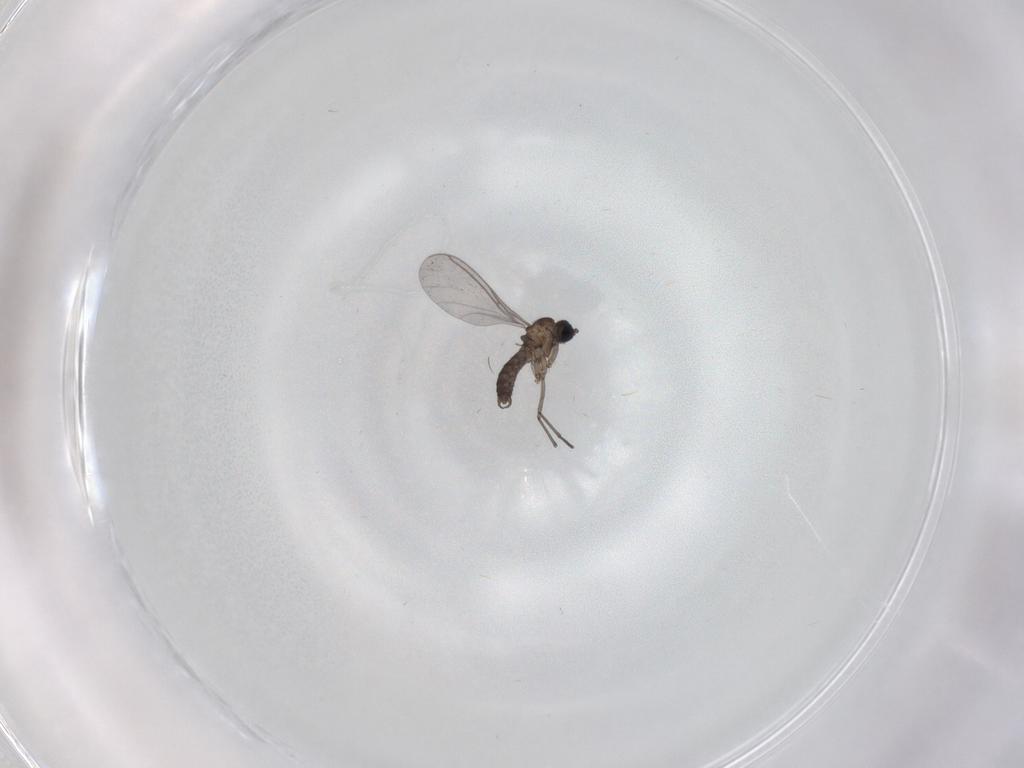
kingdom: Animalia
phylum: Arthropoda
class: Insecta
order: Diptera
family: Sciaridae
